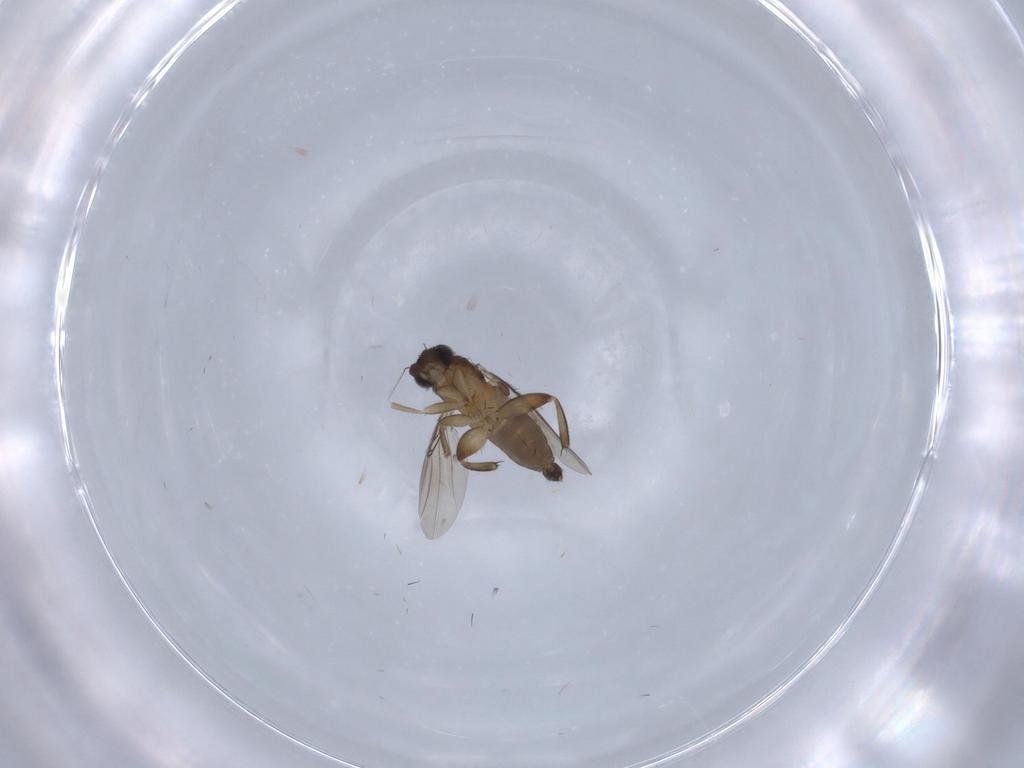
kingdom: Animalia
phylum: Arthropoda
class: Insecta
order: Diptera
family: Phoridae
